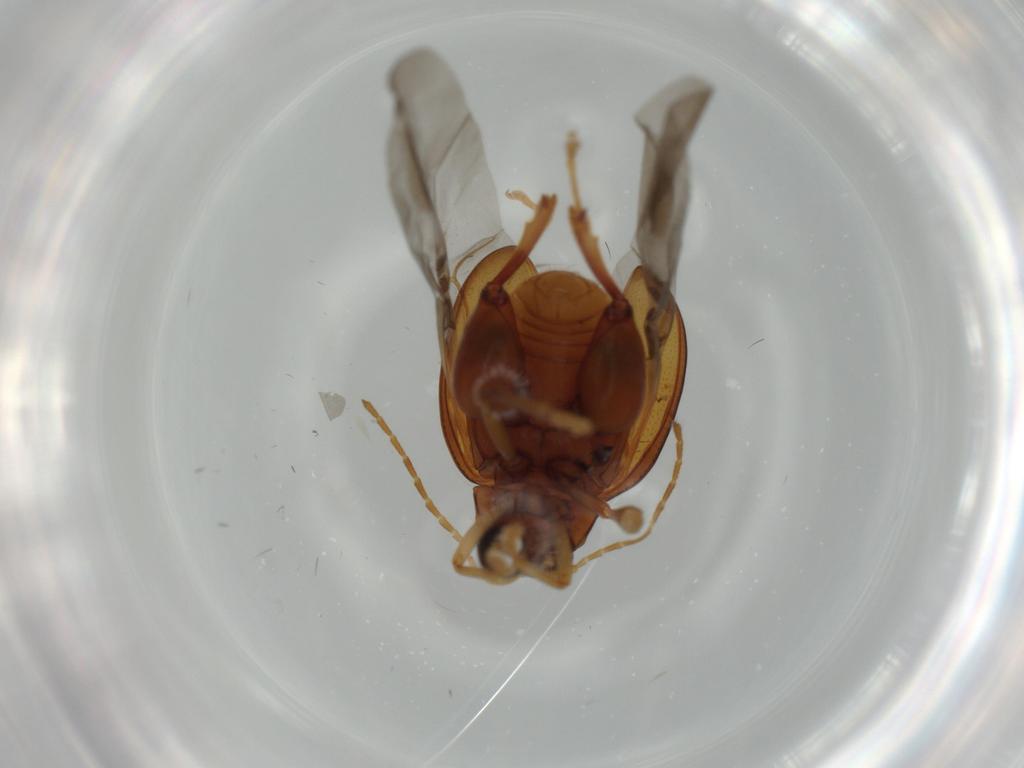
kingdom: Animalia
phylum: Arthropoda
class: Insecta
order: Coleoptera
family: Chrysomelidae
